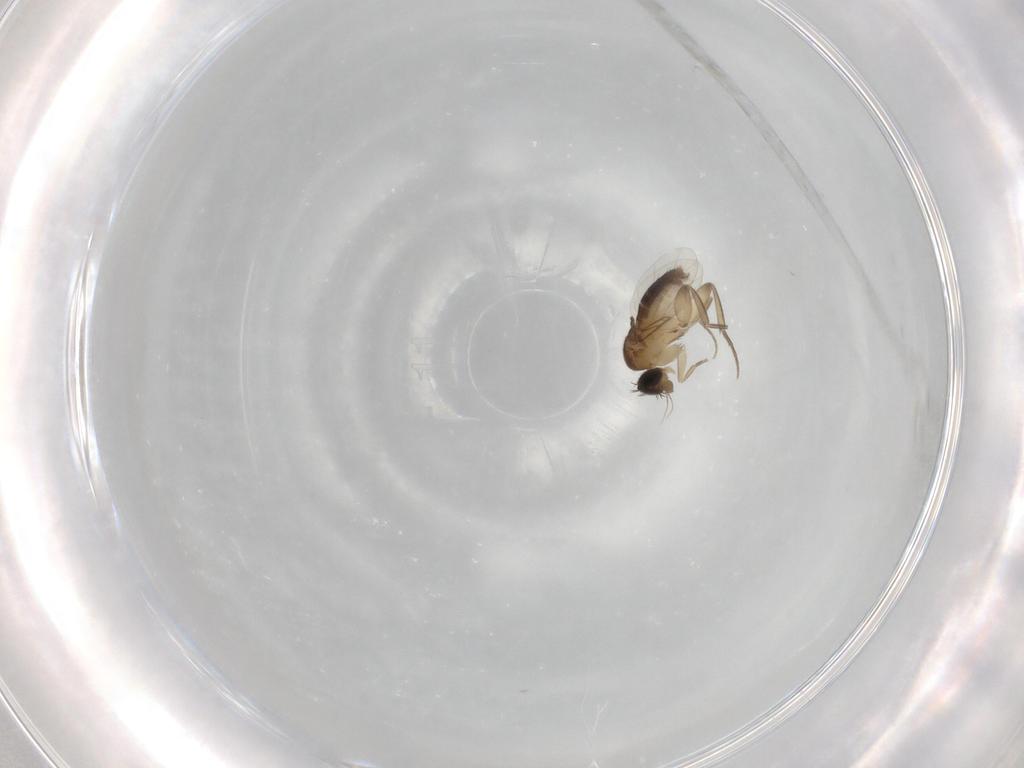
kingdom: Animalia
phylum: Arthropoda
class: Insecta
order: Diptera
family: Phoridae
